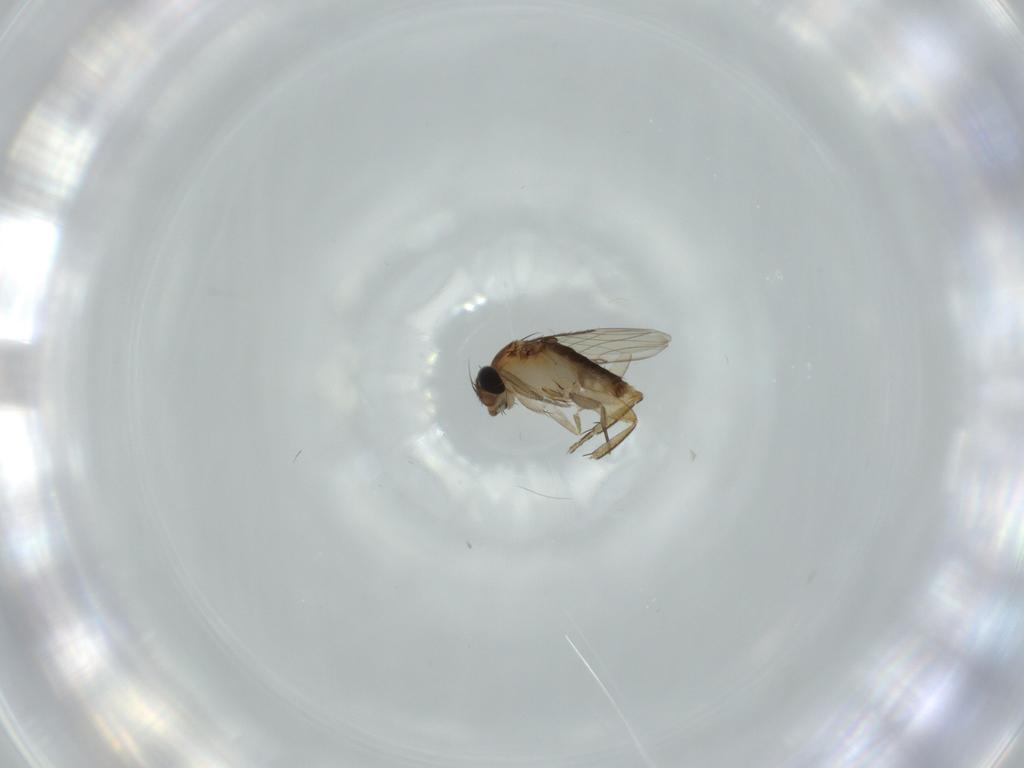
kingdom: Animalia
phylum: Arthropoda
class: Insecta
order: Diptera
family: Phoridae
